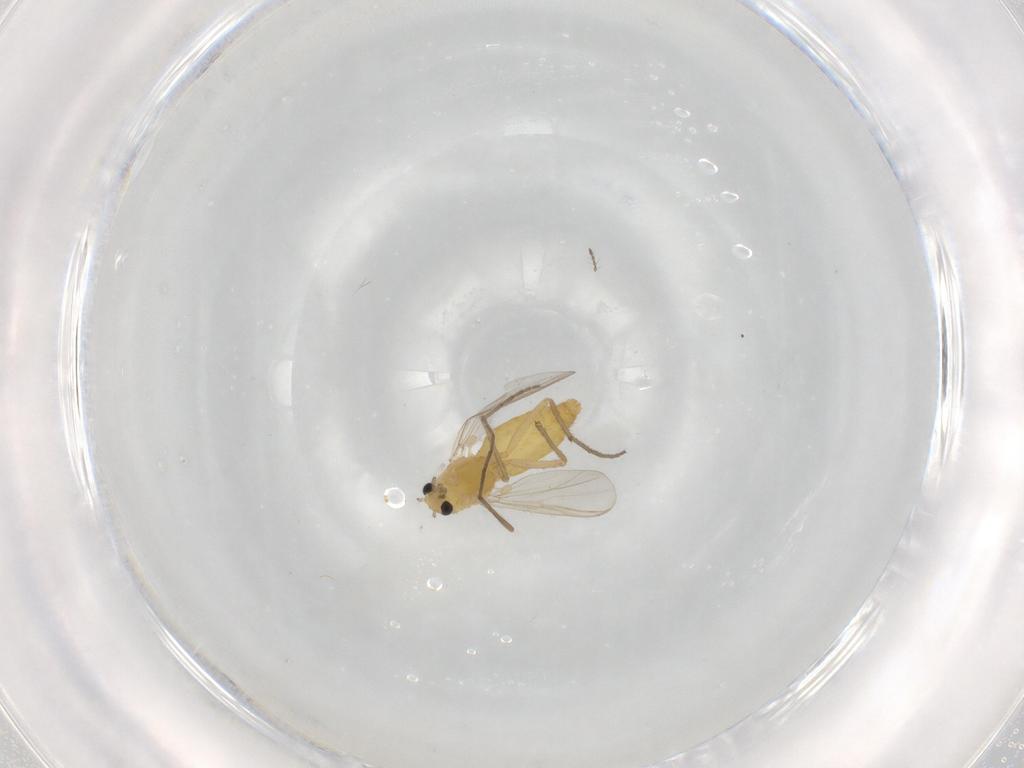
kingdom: Animalia
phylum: Arthropoda
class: Insecta
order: Diptera
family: Chironomidae
